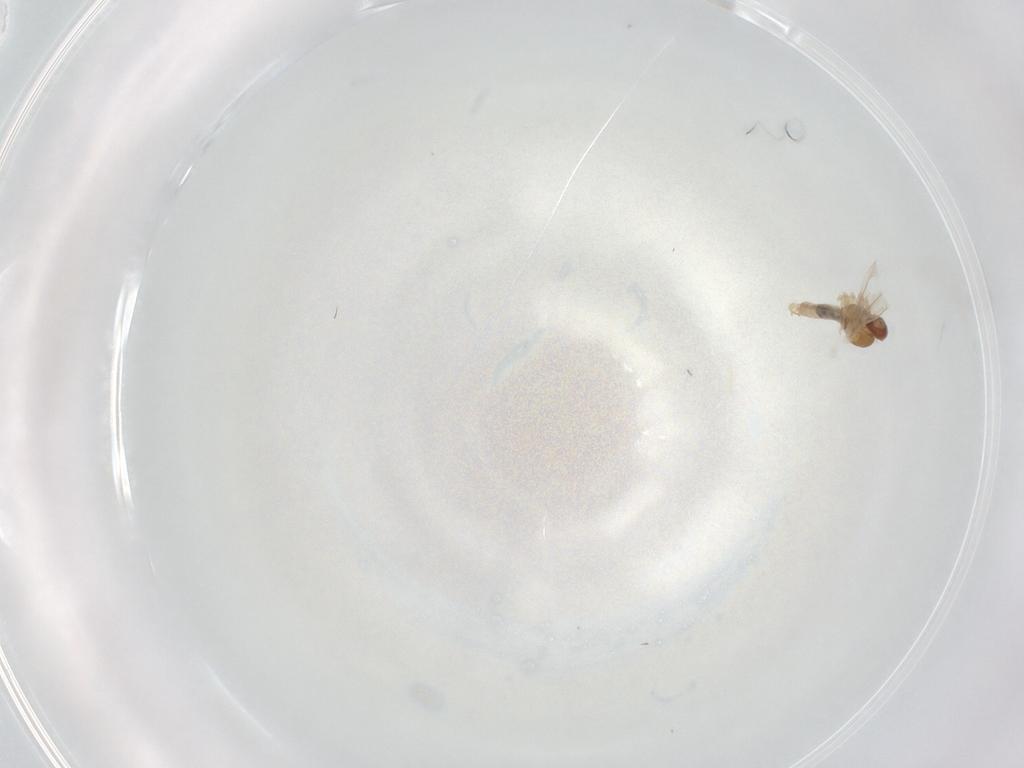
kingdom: Animalia
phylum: Arthropoda
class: Insecta
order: Diptera
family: Cecidomyiidae
